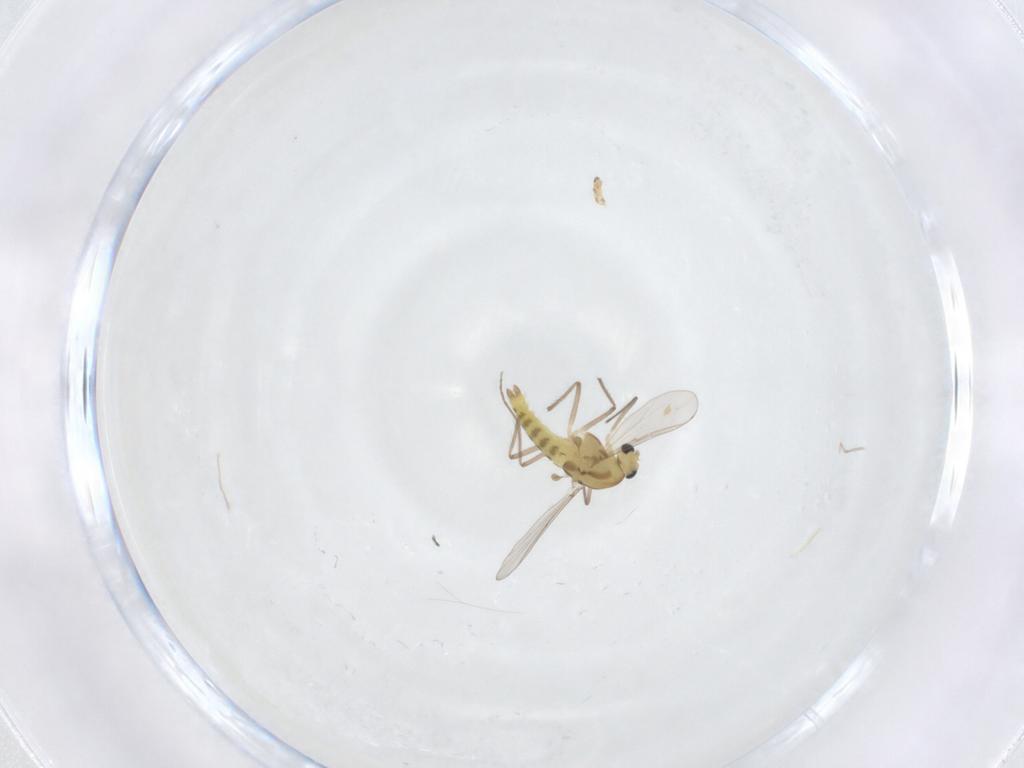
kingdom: Animalia
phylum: Arthropoda
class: Insecta
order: Diptera
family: Chironomidae
